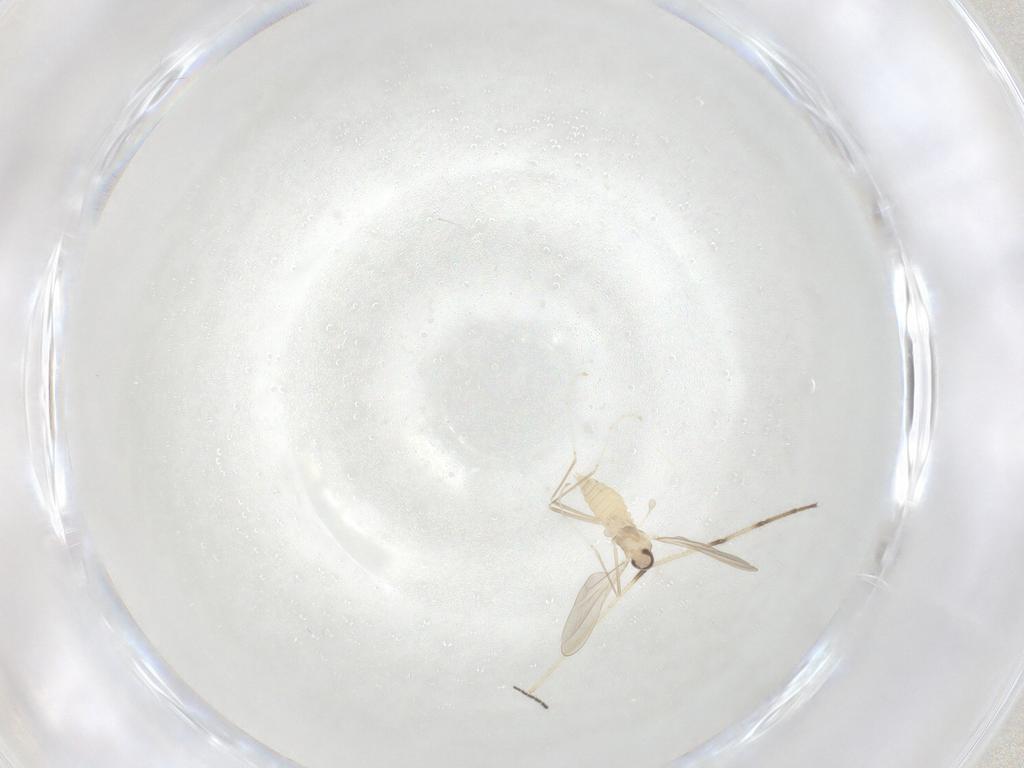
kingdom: Animalia
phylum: Arthropoda
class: Insecta
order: Diptera
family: Cecidomyiidae
